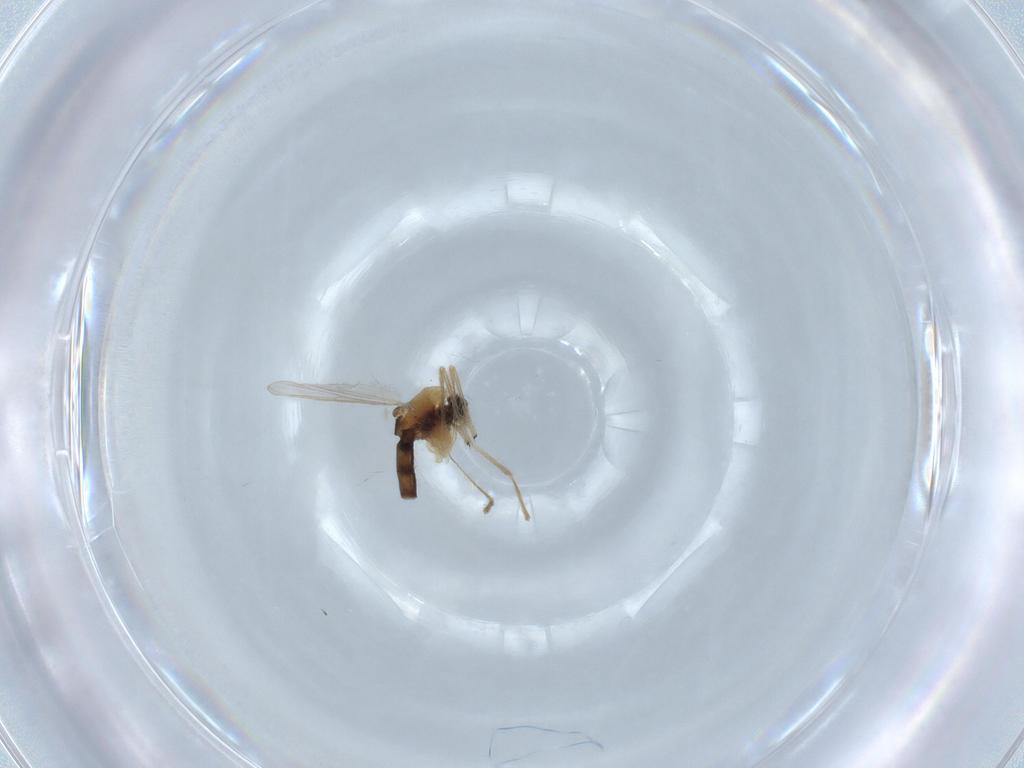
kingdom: Animalia
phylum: Arthropoda
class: Insecta
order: Diptera
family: Chironomidae
